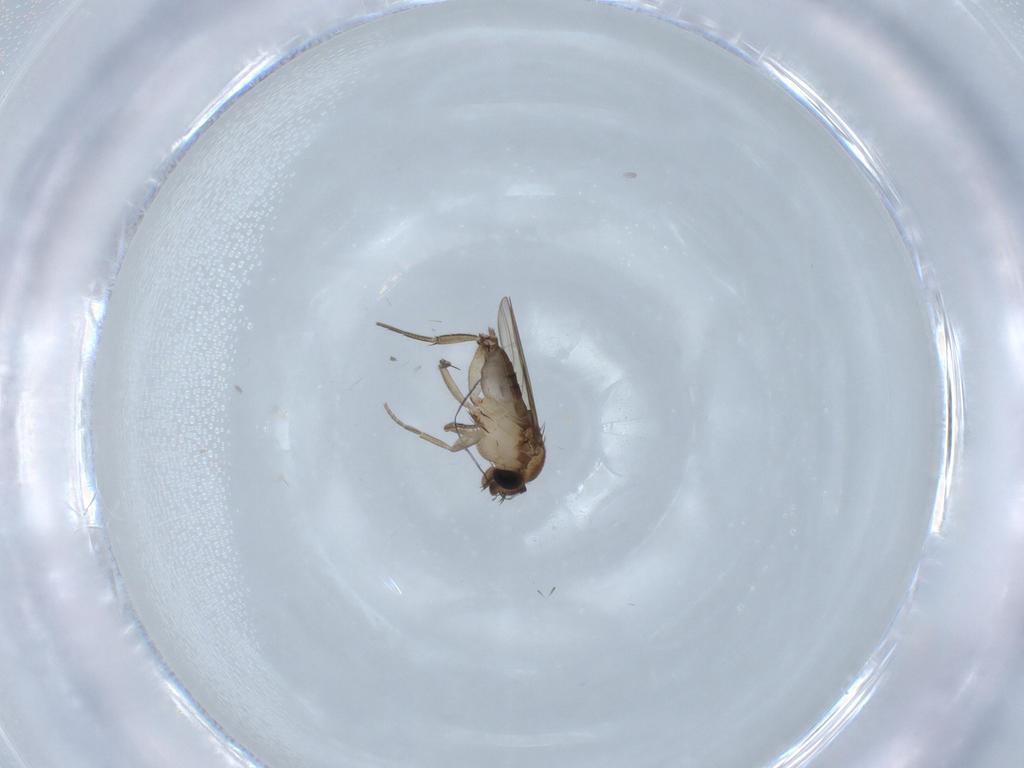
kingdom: Animalia
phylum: Arthropoda
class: Insecta
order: Diptera
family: Phoridae
